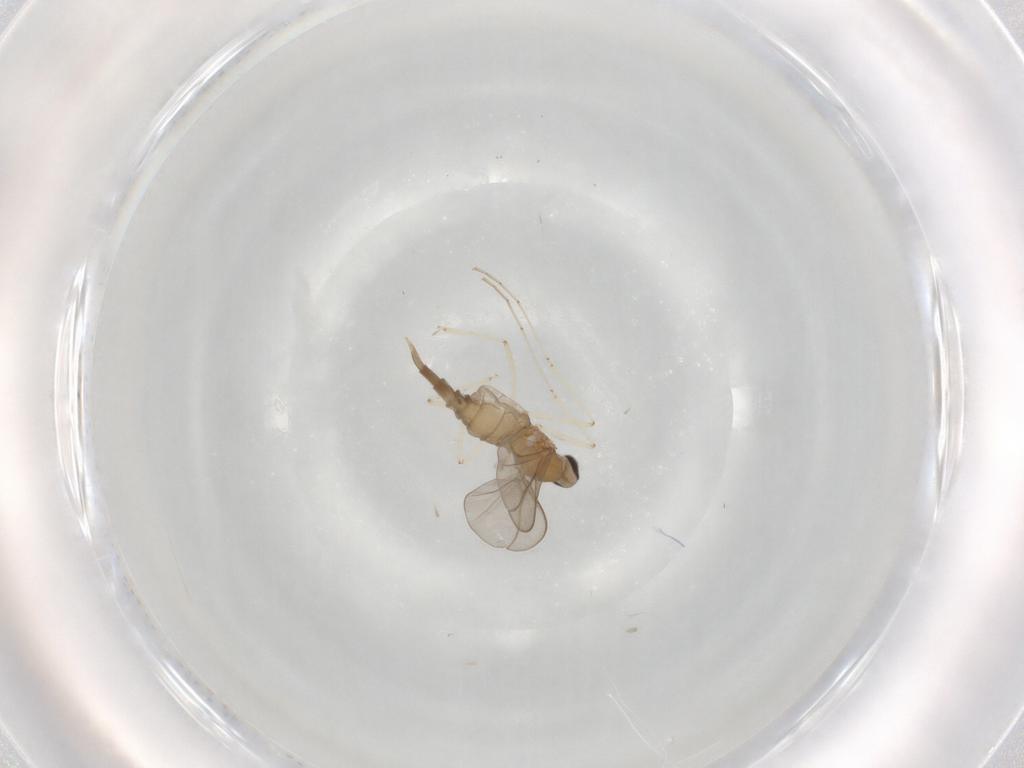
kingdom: Animalia
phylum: Arthropoda
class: Insecta
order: Diptera
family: Cecidomyiidae
